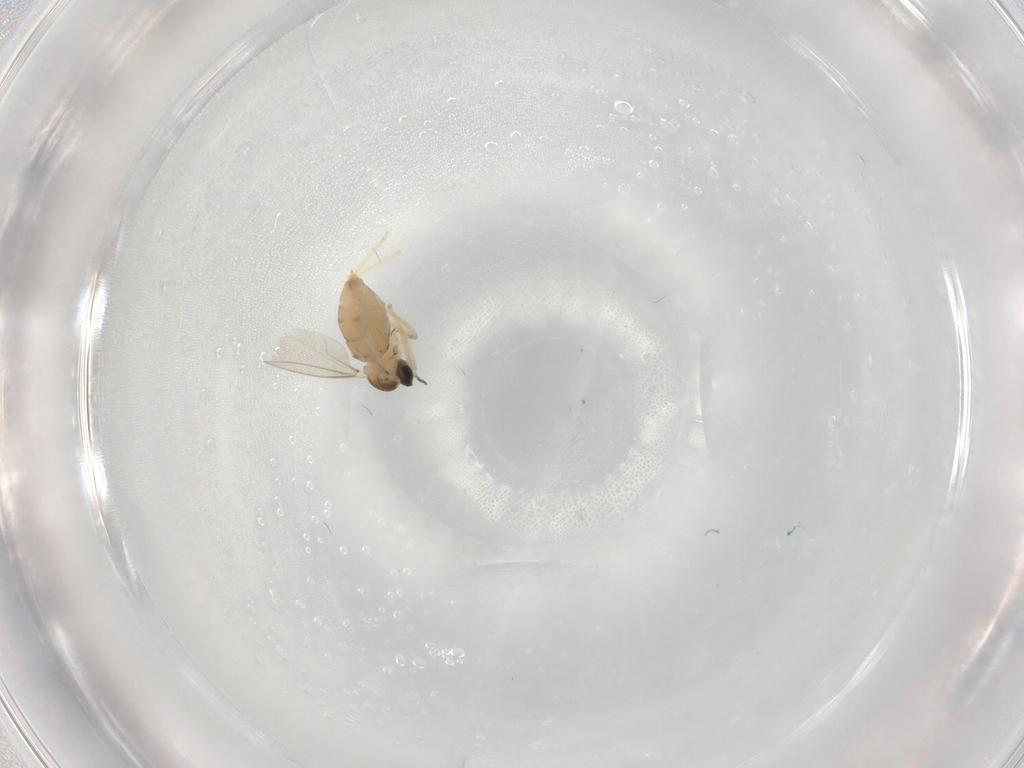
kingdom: Animalia
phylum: Arthropoda
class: Insecta
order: Diptera
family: Cecidomyiidae
